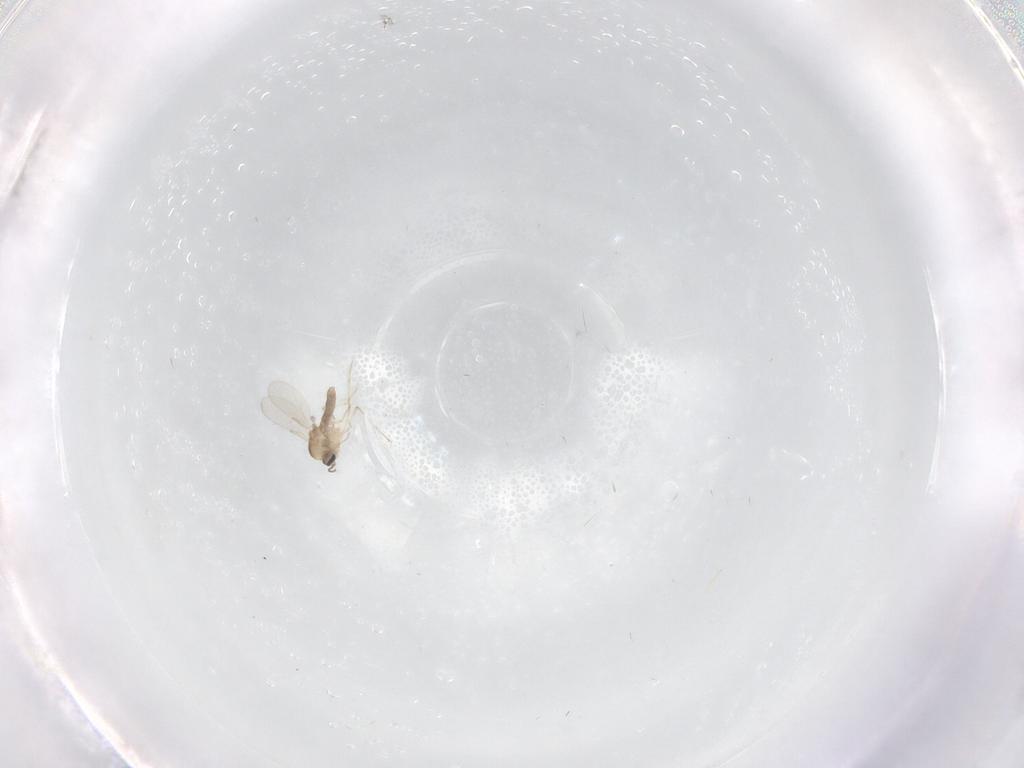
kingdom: Animalia
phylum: Arthropoda
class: Insecta
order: Diptera
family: Ceratopogonidae
